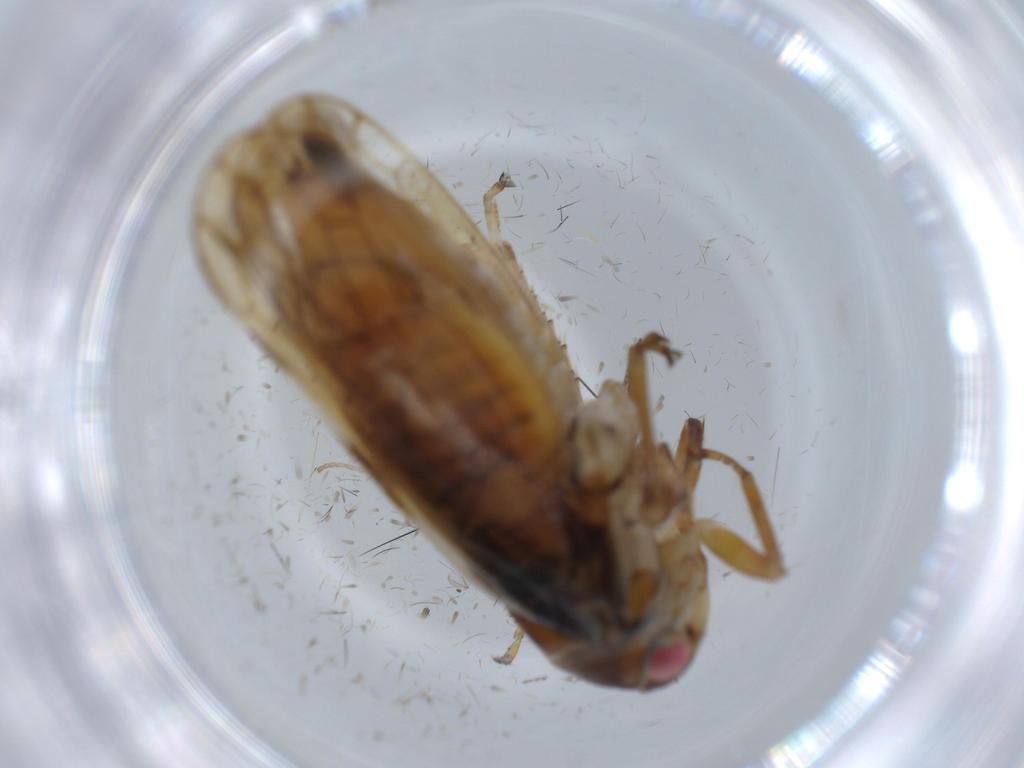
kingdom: Animalia
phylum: Arthropoda
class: Insecta
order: Hemiptera
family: Cicadellidae
